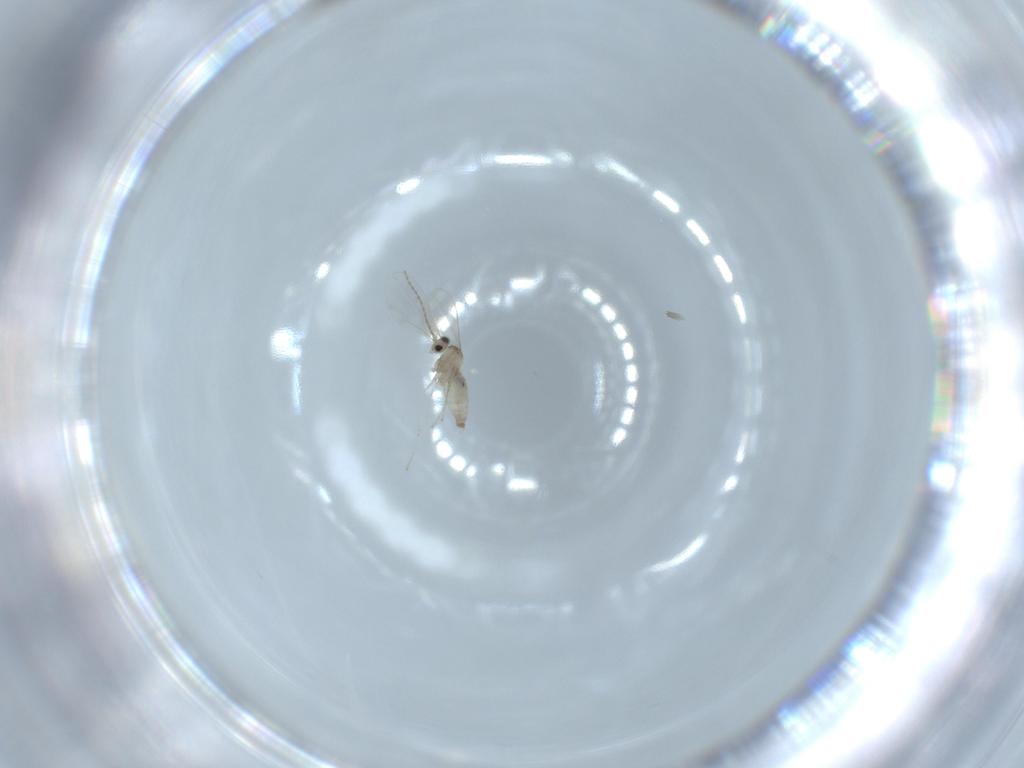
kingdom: Animalia
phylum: Arthropoda
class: Insecta
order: Diptera
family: Cecidomyiidae
